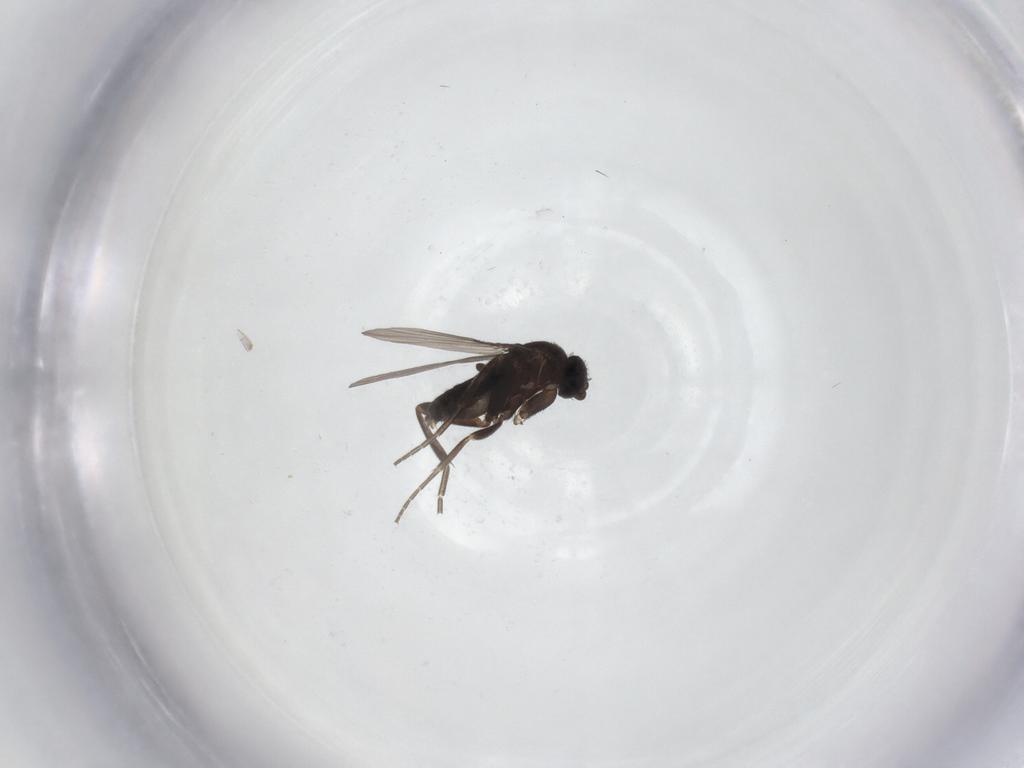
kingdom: Animalia
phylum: Arthropoda
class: Insecta
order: Diptera
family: Phoridae
